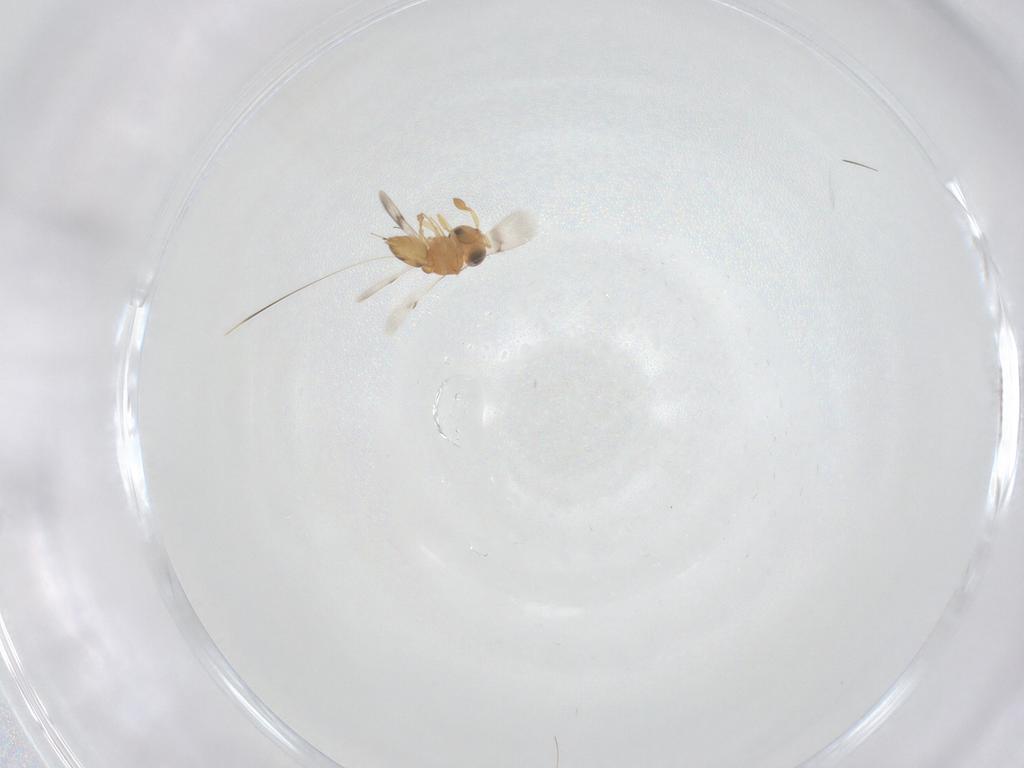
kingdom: Animalia
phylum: Arthropoda
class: Insecta
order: Hymenoptera
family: Scelionidae
